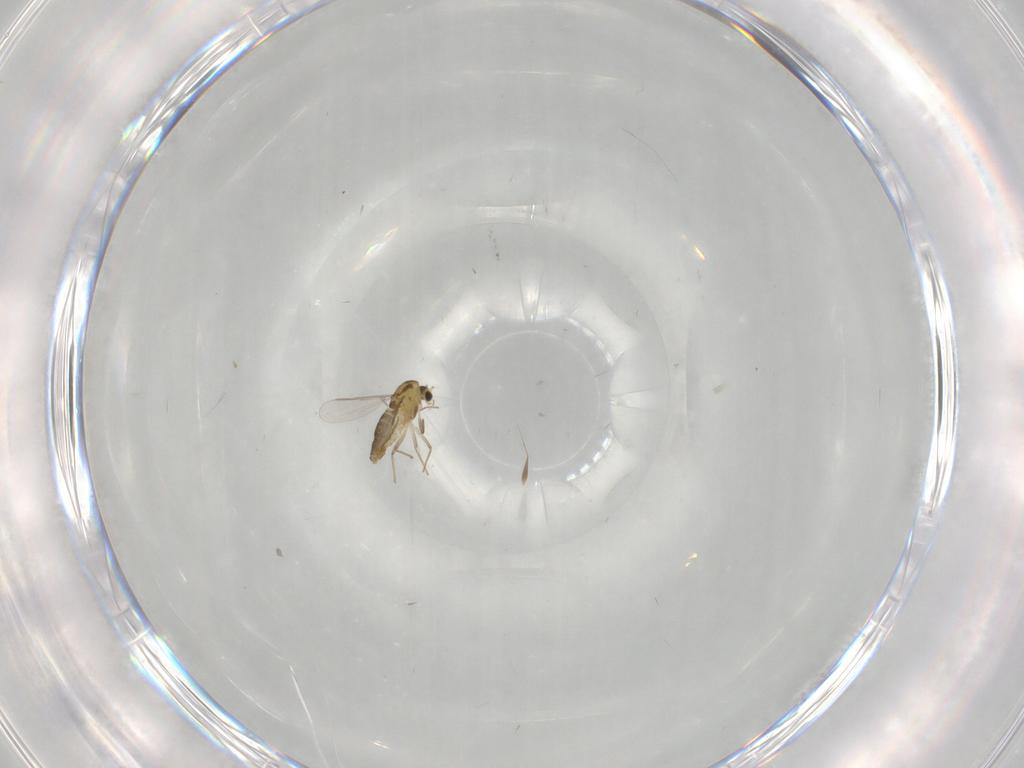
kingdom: Animalia
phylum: Arthropoda
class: Insecta
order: Diptera
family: Chironomidae
